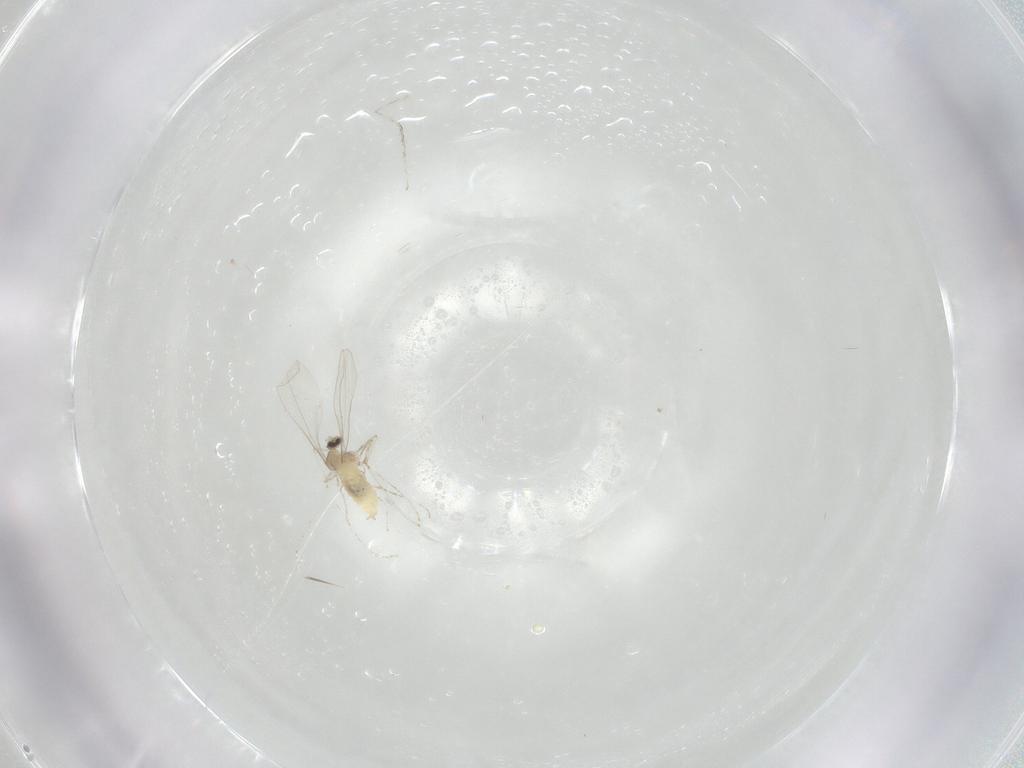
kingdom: Animalia
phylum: Arthropoda
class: Insecta
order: Diptera
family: Cecidomyiidae
